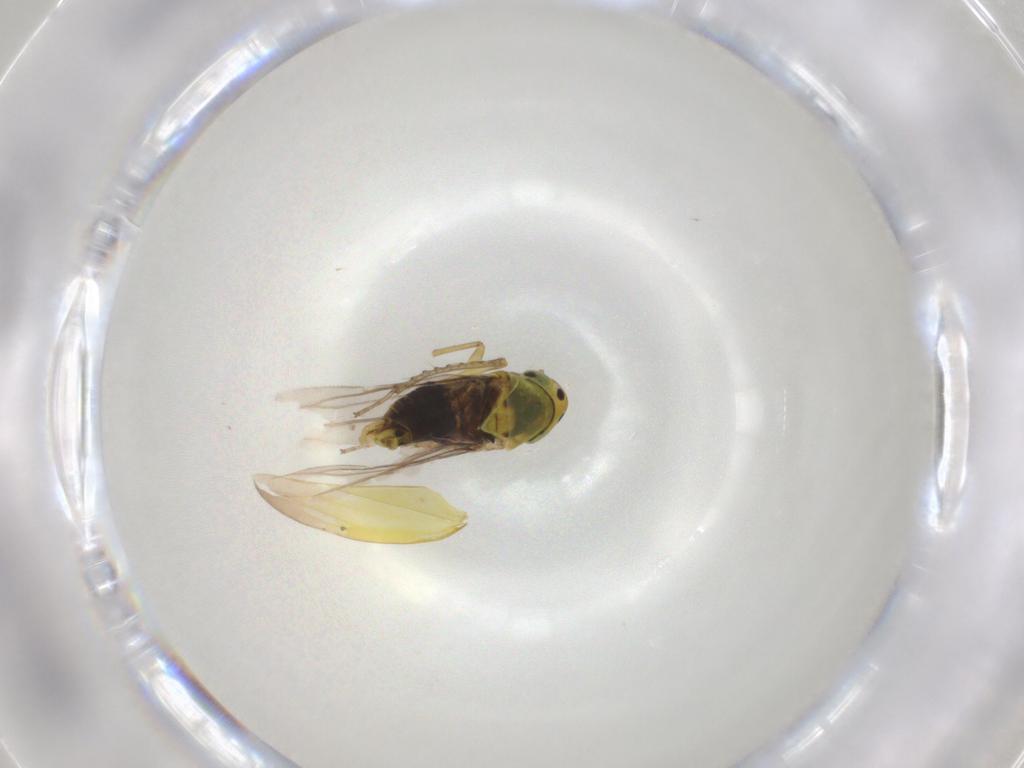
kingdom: Animalia
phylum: Arthropoda
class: Insecta
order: Hemiptera
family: Cicadellidae
